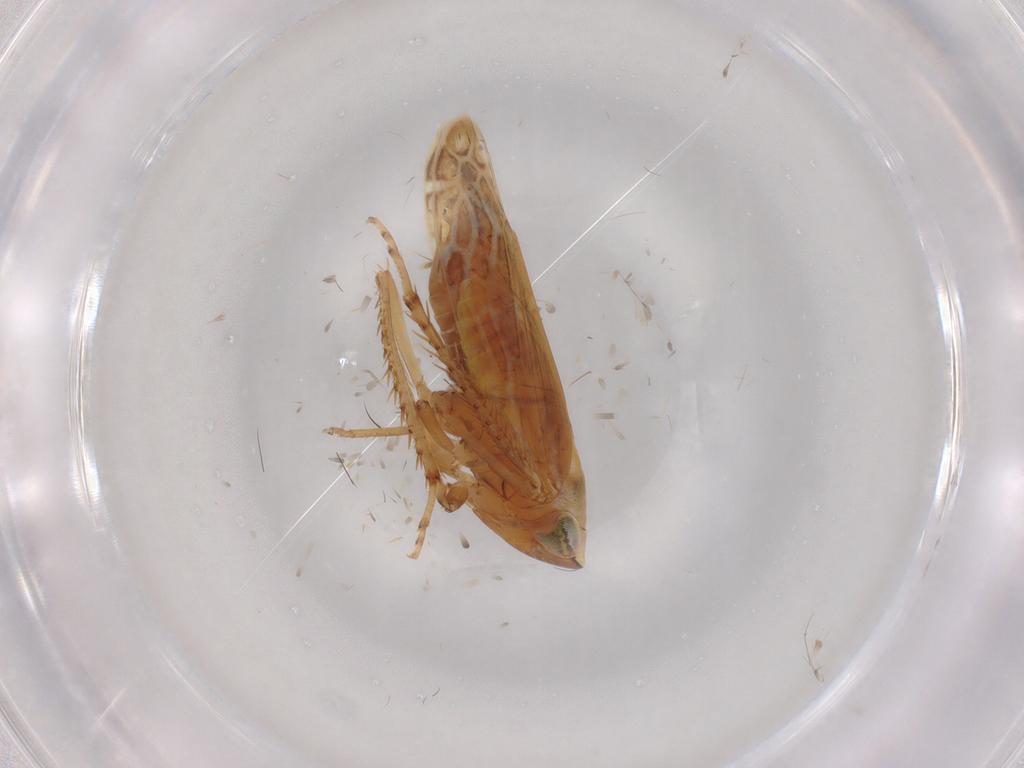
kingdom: Animalia
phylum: Arthropoda
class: Insecta
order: Hemiptera
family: Cicadellidae
